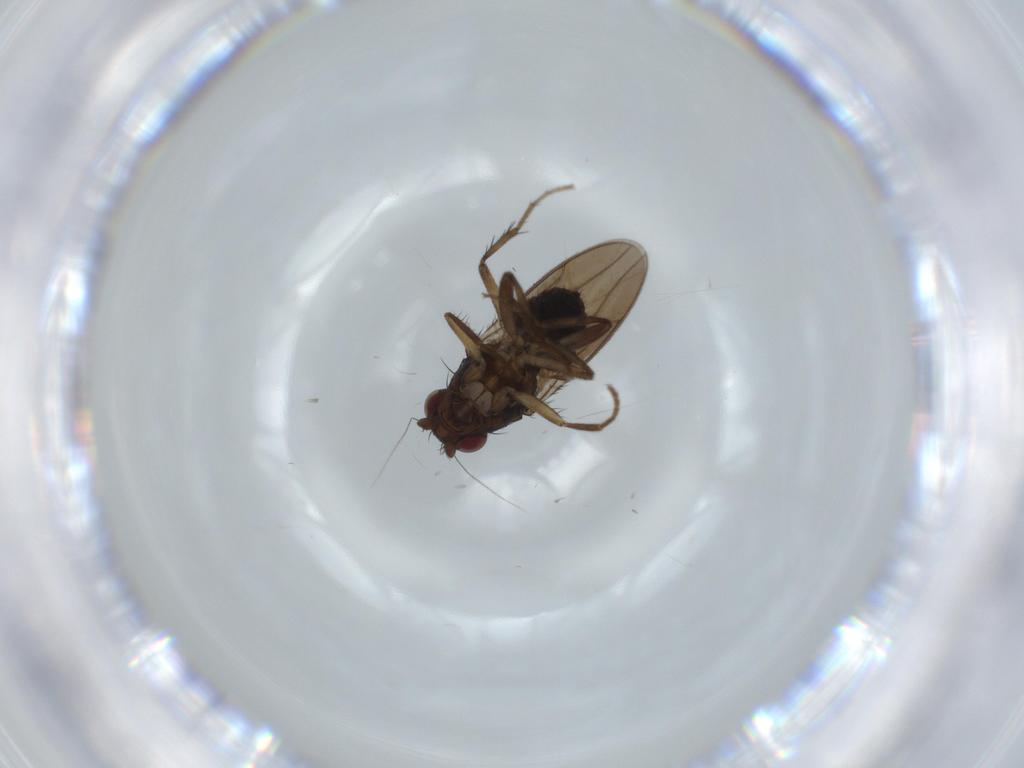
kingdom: Animalia
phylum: Arthropoda
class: Insecta
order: Diptera
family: Sphaeroceridae
